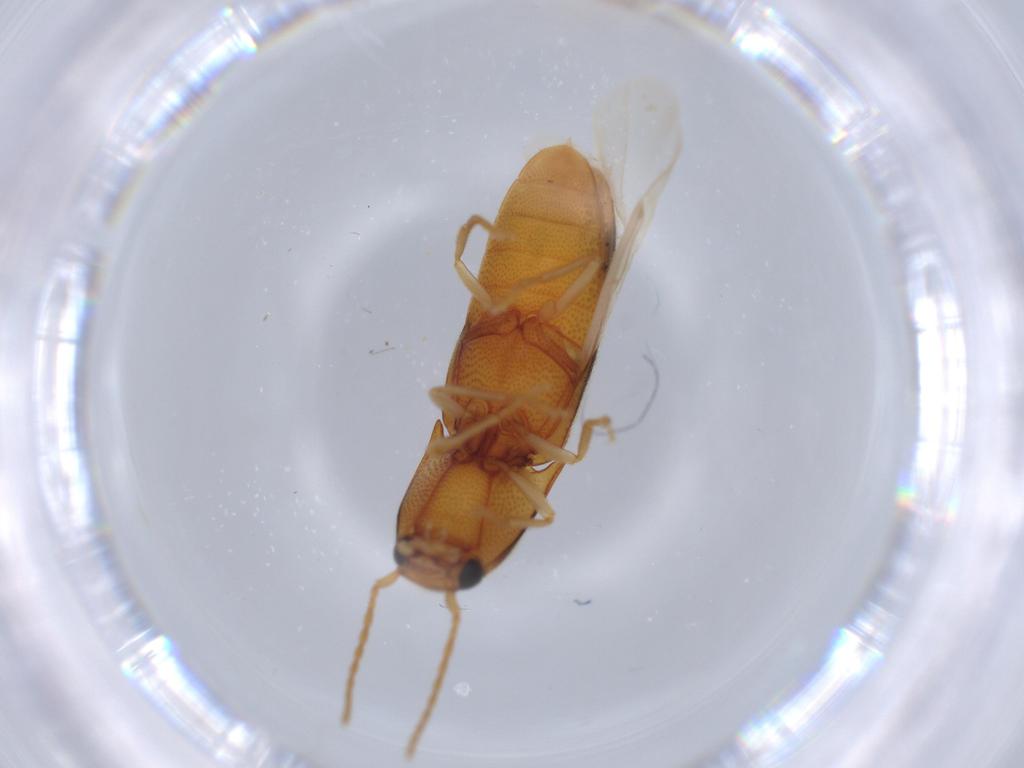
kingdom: Animalia
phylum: Arthropoda
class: Insecta
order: Coleoptera
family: Elateridae
